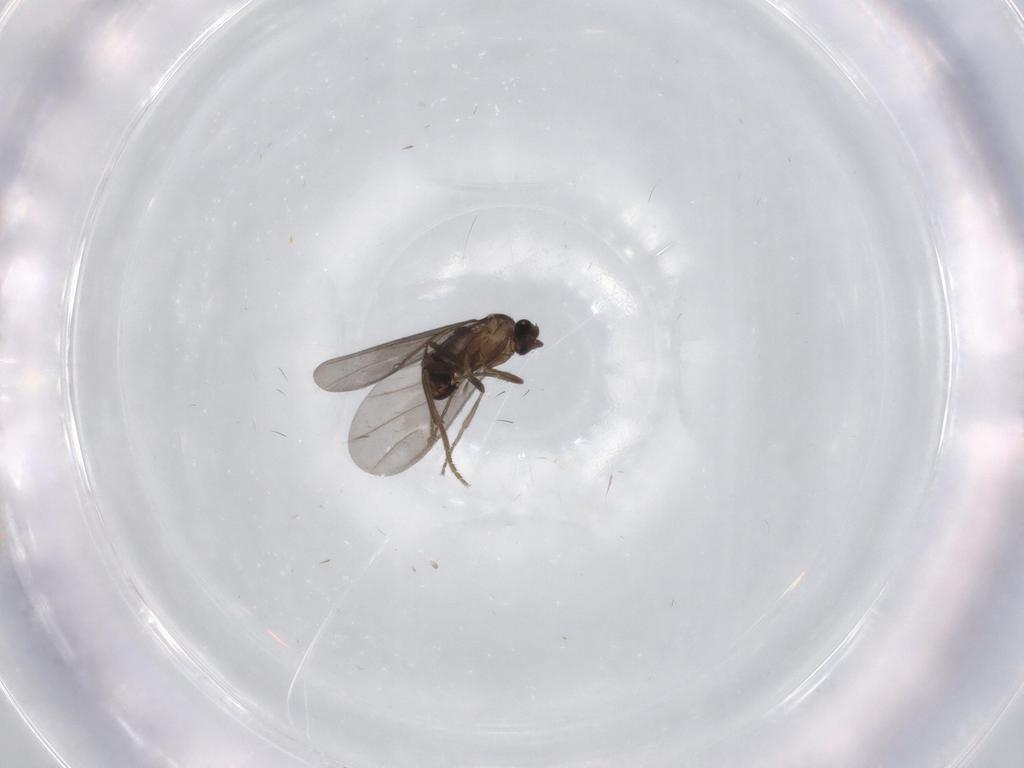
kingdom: Animalia
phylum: Arthropoda
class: Insecta
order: Diptera
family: Phoridae
